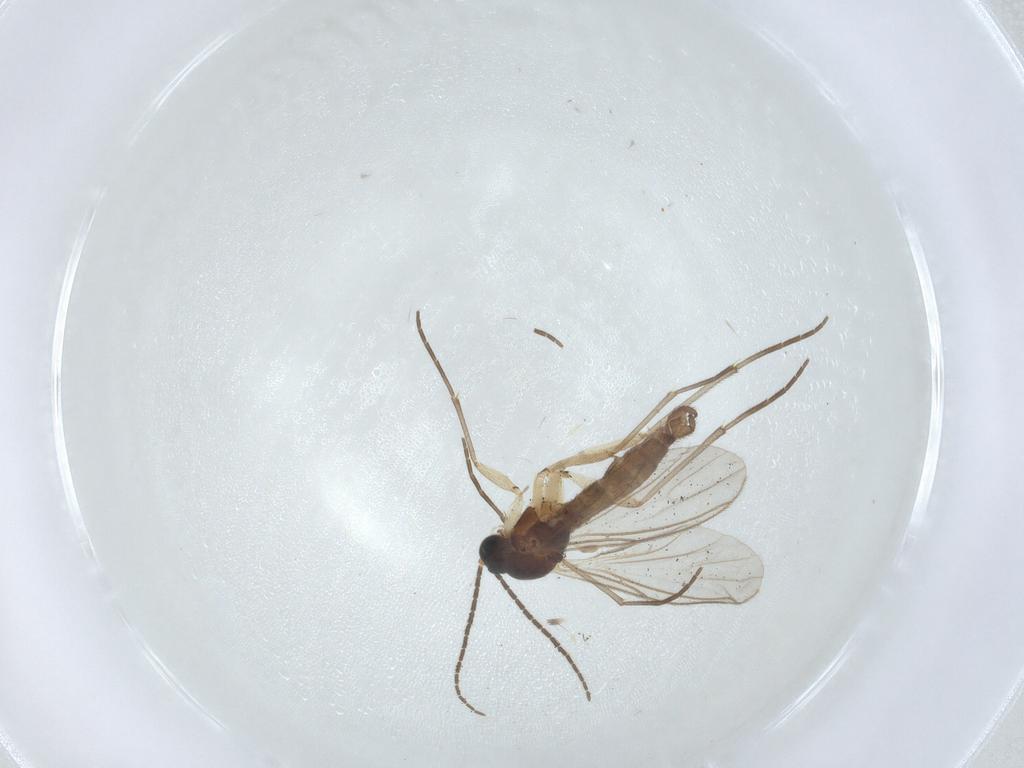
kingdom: Animalia
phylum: Arthropoda
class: Insecta
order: Diptera
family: Sciaridae
